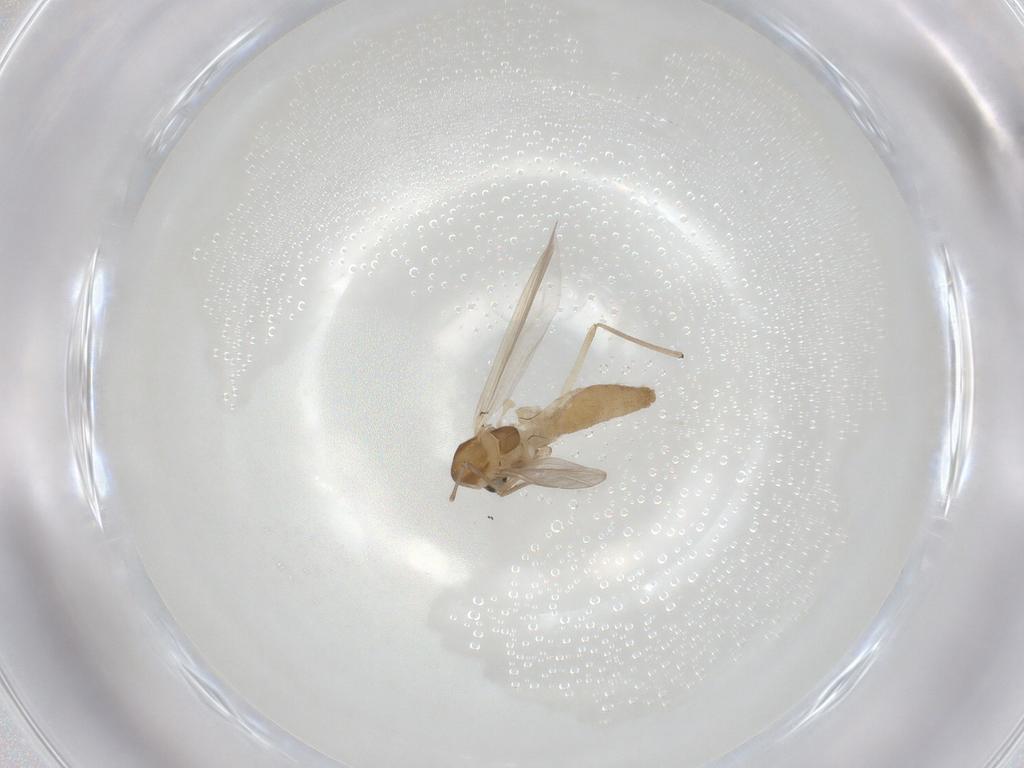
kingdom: Animalia
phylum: Arthropoda
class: Insecta
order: Diptera
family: Chironomidae
